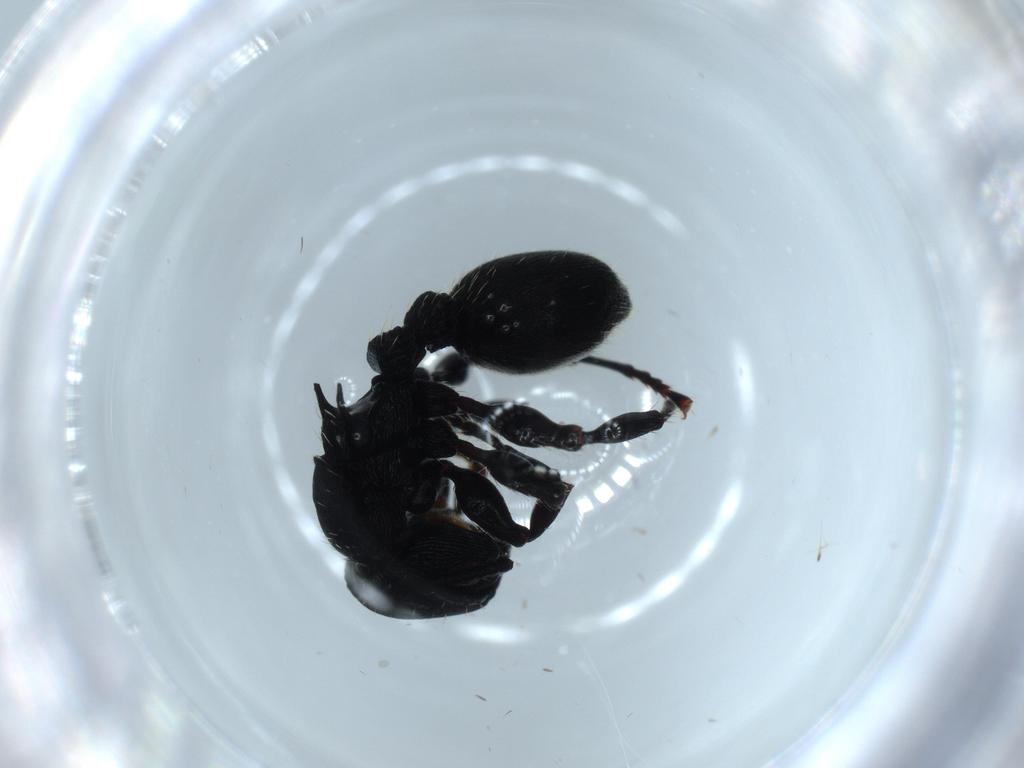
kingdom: Animalia
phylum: Arthropoda
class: Insecta
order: Hymenoptera
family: Formicidae
